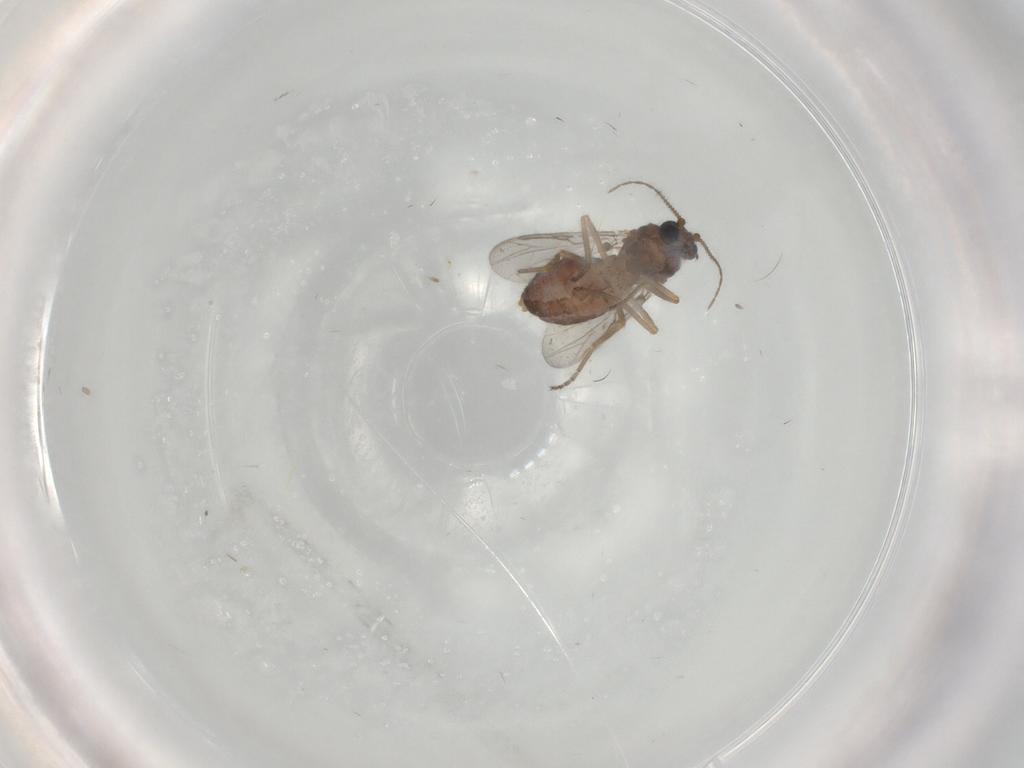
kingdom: Animalia
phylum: Arthropoda
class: Insecta
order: Diptera
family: Ceratopogonidae
